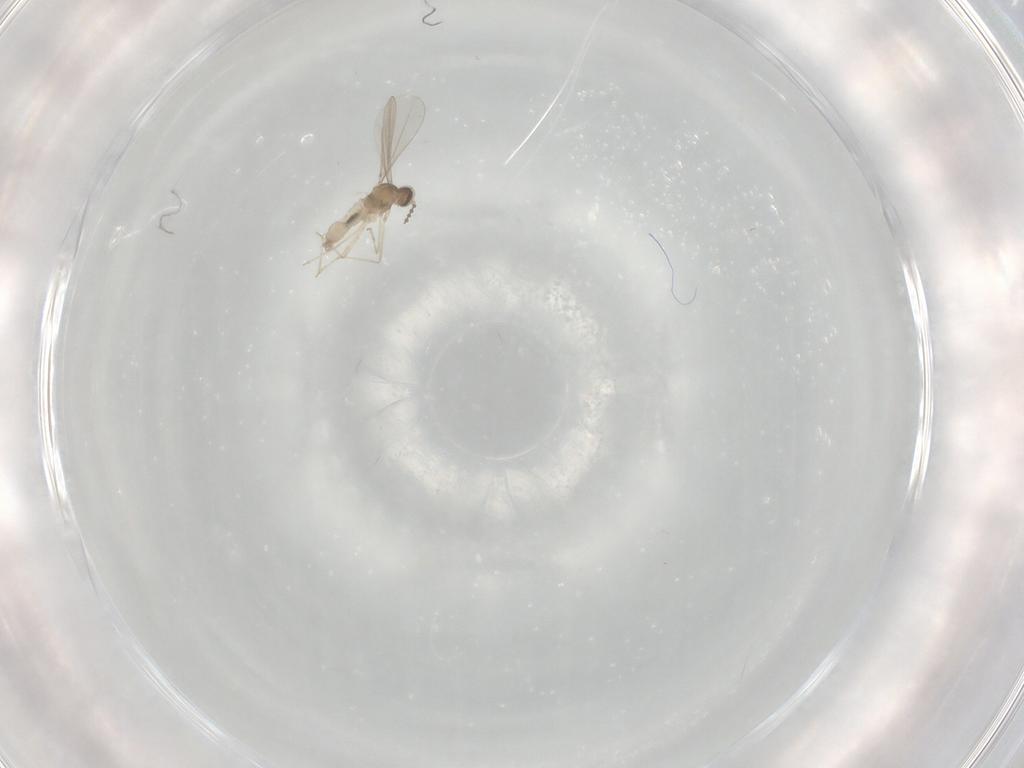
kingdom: Animalia
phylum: Arthropoda
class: Insecta
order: Diptera
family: Cecidomyiidae
